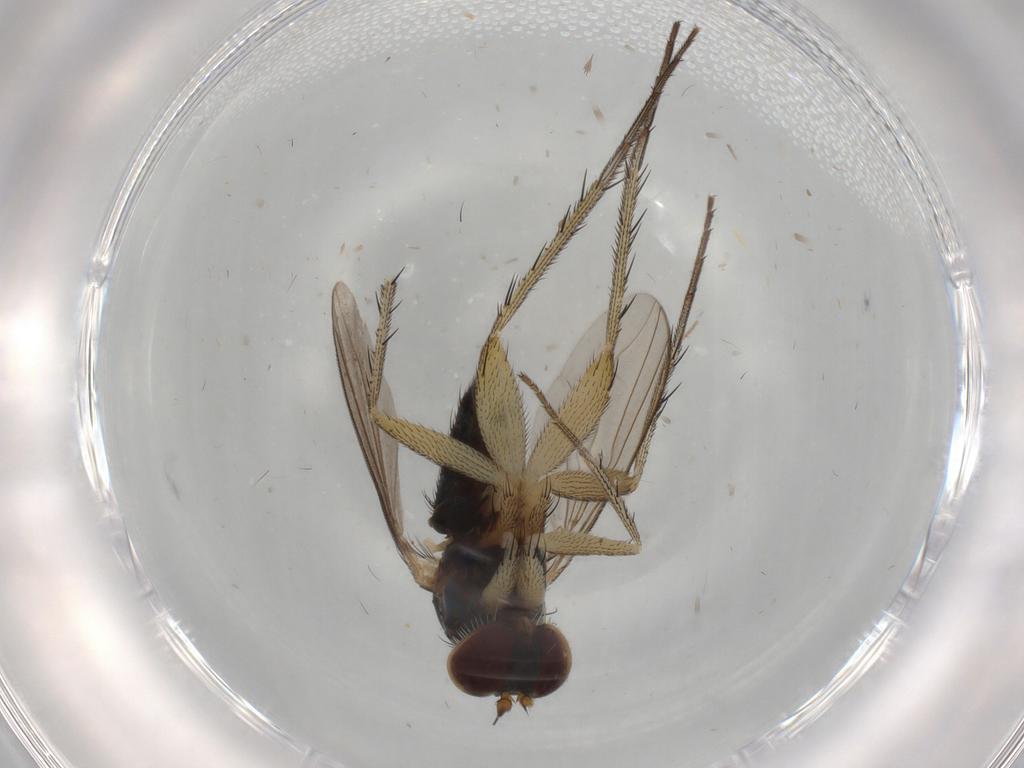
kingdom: Animalia
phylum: Arthropoda
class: Insecta
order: Diptera
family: Dolichopodidae
